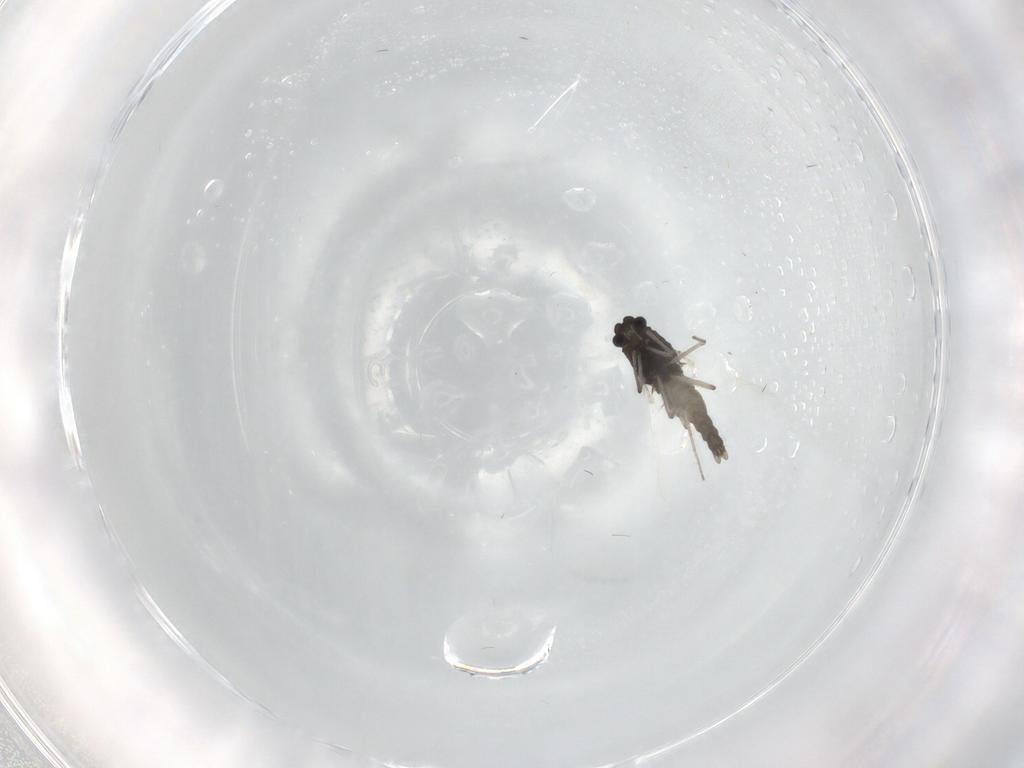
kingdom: Animalia
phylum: Arthropoda
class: Insecta
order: Diptera
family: Chironomidae
